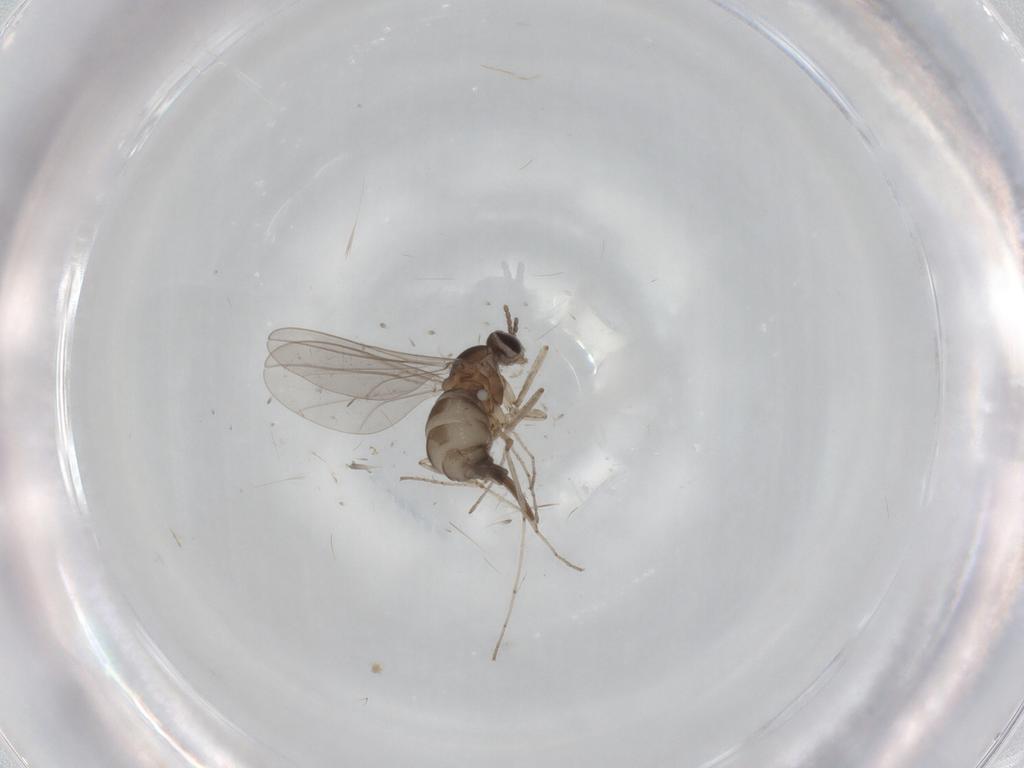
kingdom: Animalia
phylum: Arthropoda
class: Insecta
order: Diptera
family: Cecidomyiidae
